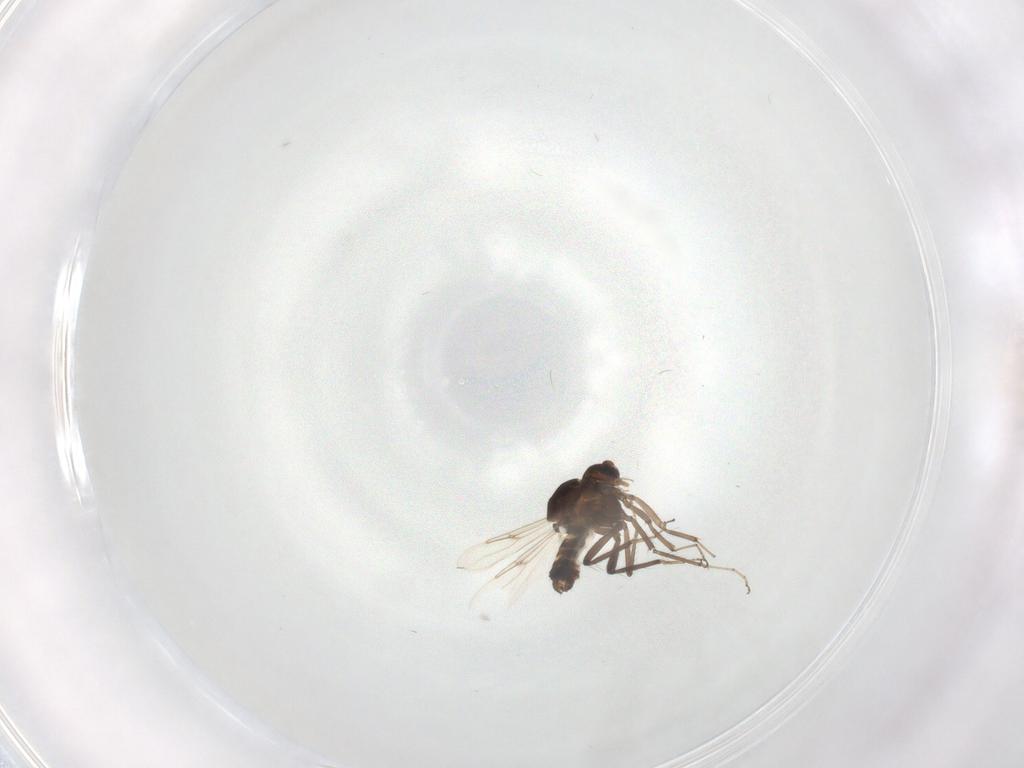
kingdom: Animalia
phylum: Arthropoda
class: Insecta
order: Diptera
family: Ceratopogonidae
